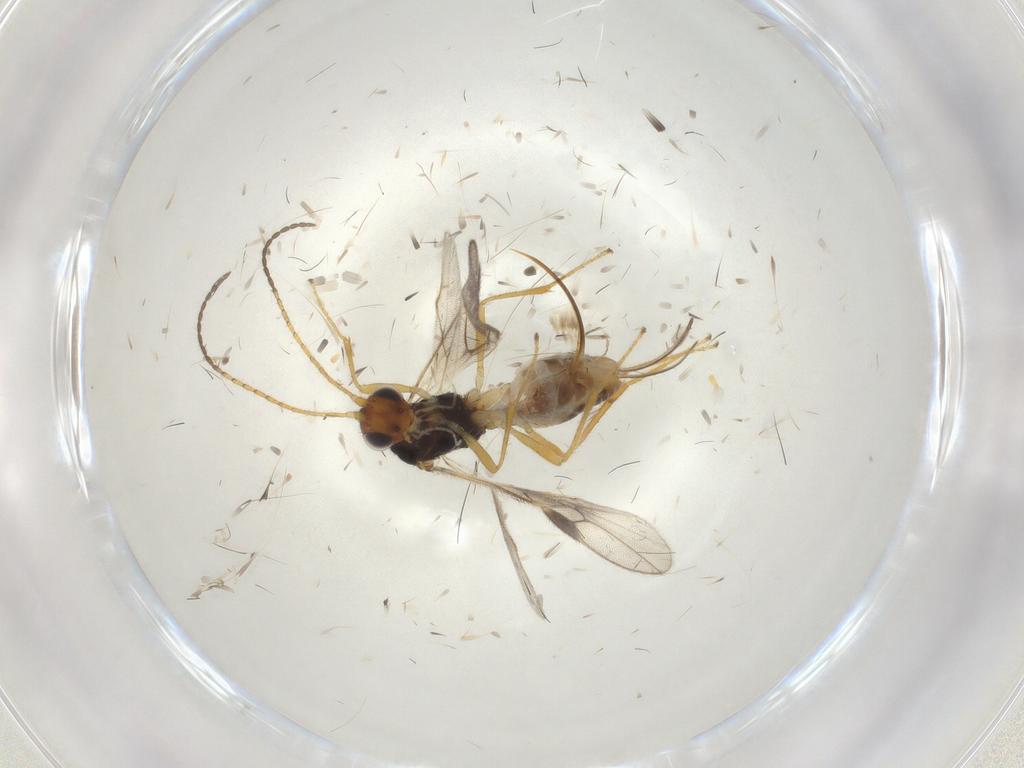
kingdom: Animalia
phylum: Arthropoda
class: Insecta
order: Hymenoptera
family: Braconidae
